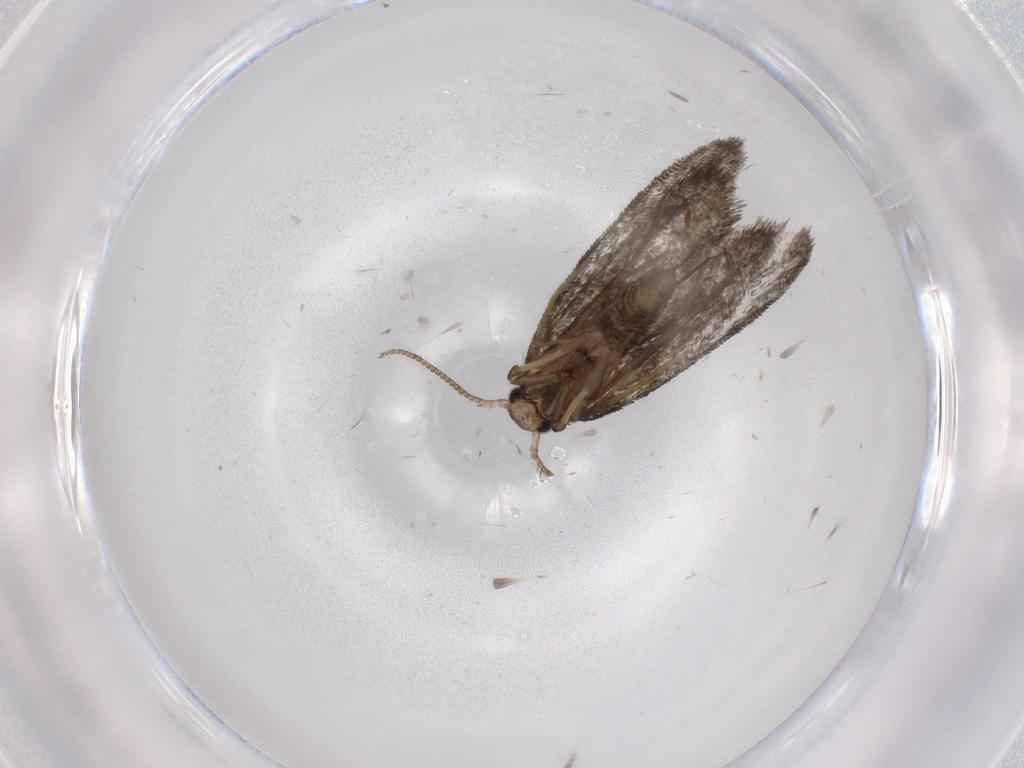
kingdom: Animalia
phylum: Arthropoda
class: Insecta
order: Lepidoptera
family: Psychidae
